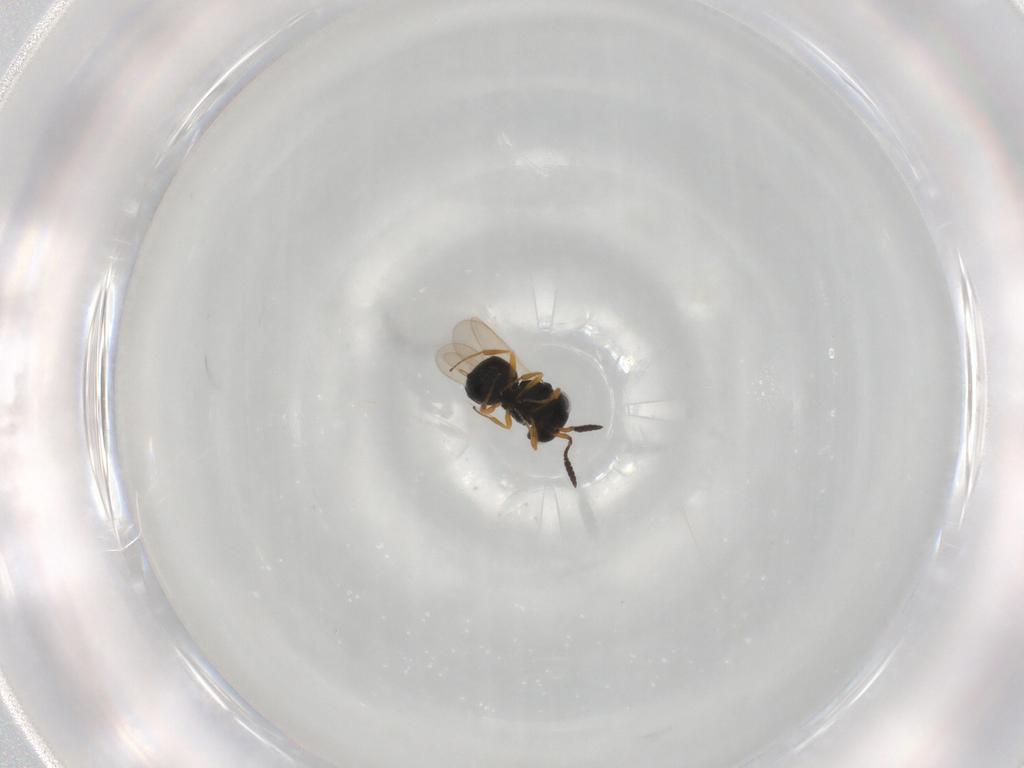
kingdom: Animalia
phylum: Arthropoda
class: Insecta
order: Hymenoptera
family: Scelionidae
